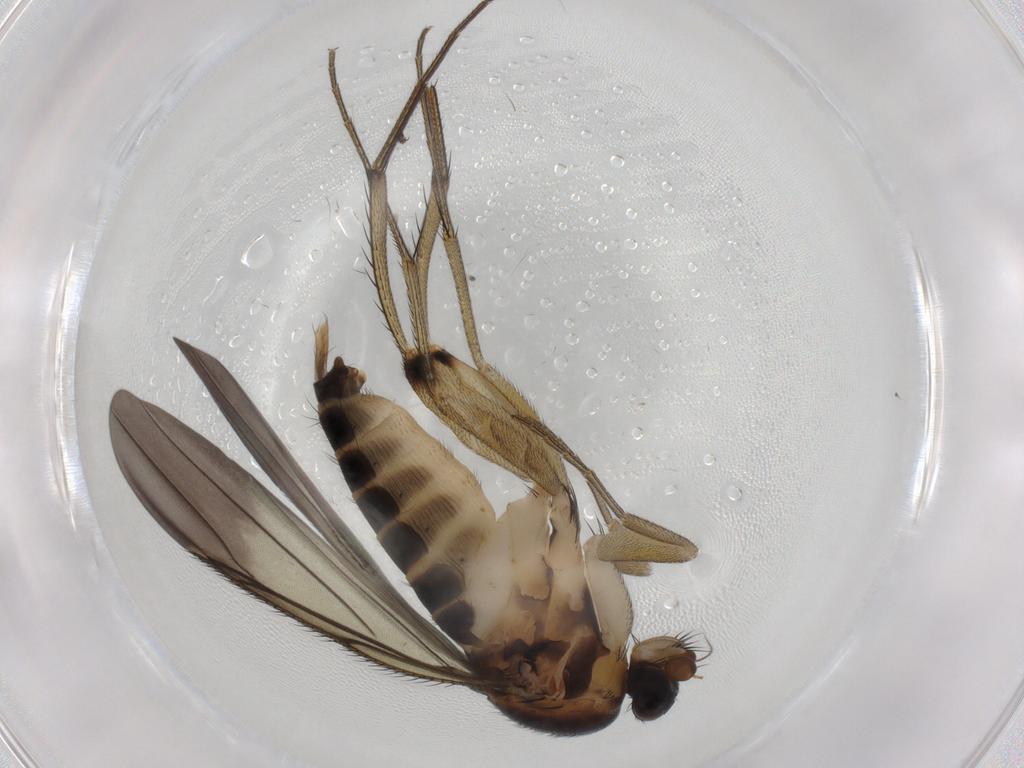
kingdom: Animalia
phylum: Arthropoda
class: Insecta
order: Diptera
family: Phoridae
